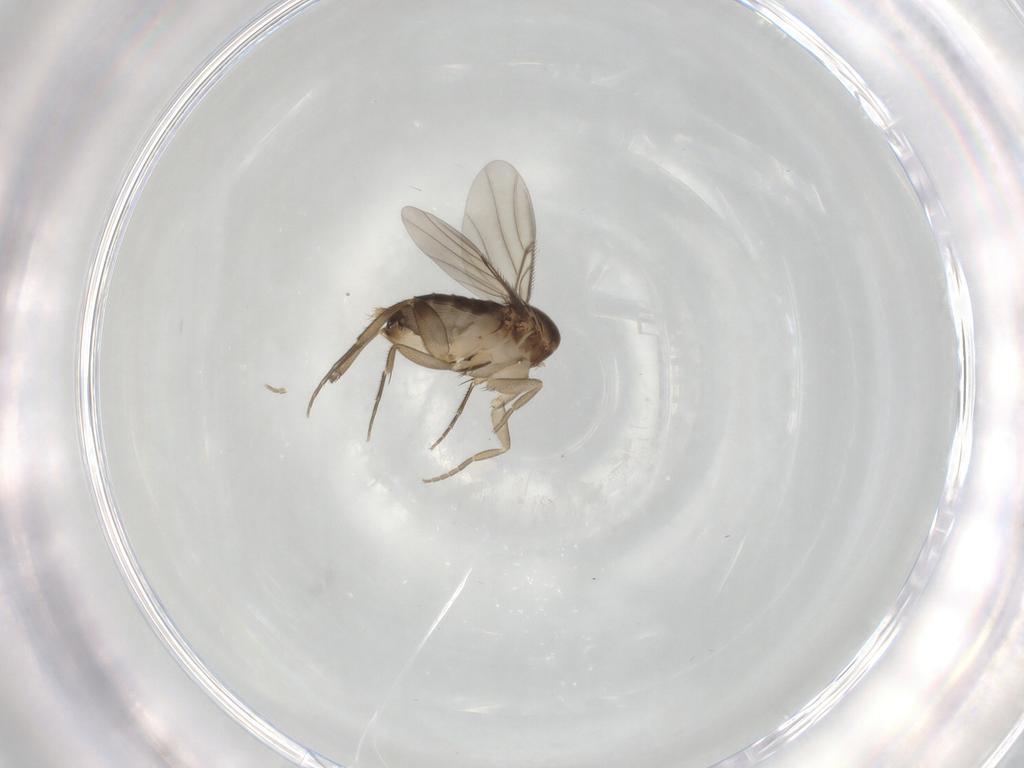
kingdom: Animalia
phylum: Arthropoda
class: Insecta
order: Diptera
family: Phoridae
